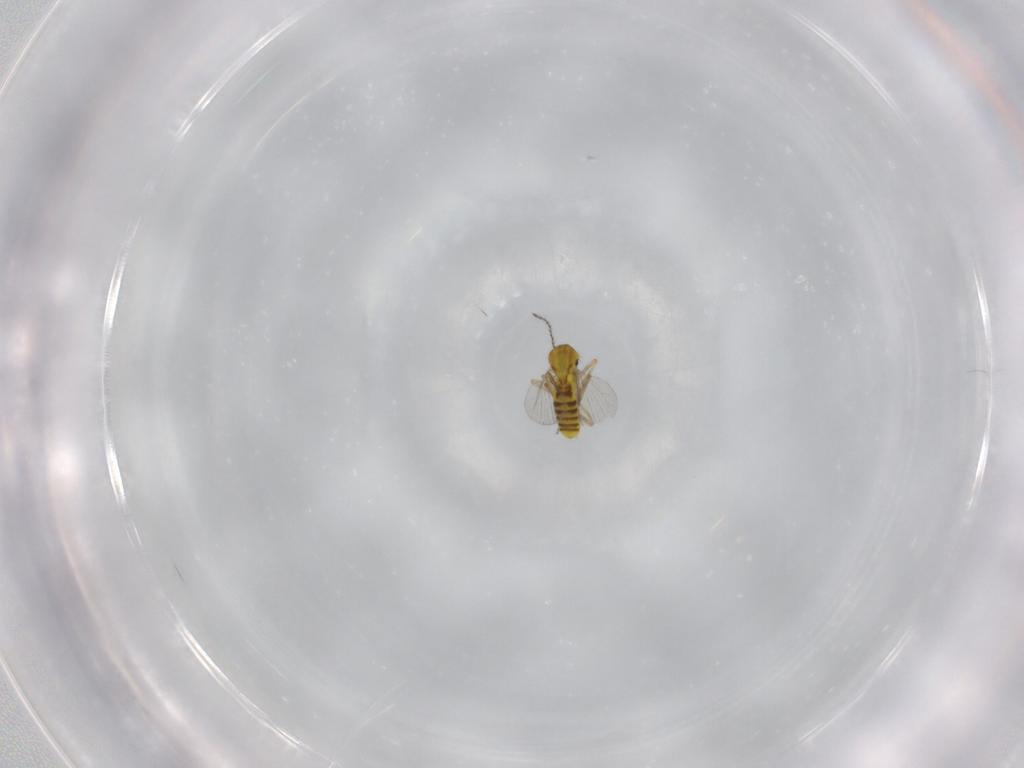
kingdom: Animalia
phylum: Arthropoda
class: Insecta
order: Diptera
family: Ceratopogonidae
